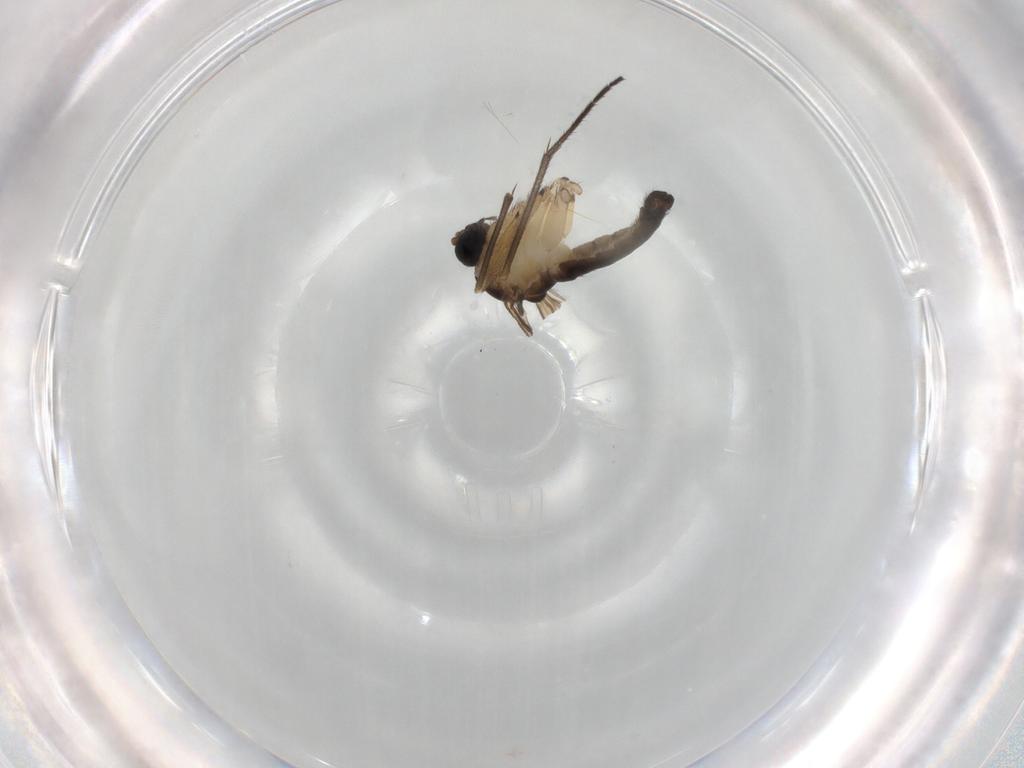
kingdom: Animalia
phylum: Arthropoda
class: Insecta
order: Diptera
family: Sciaridae
